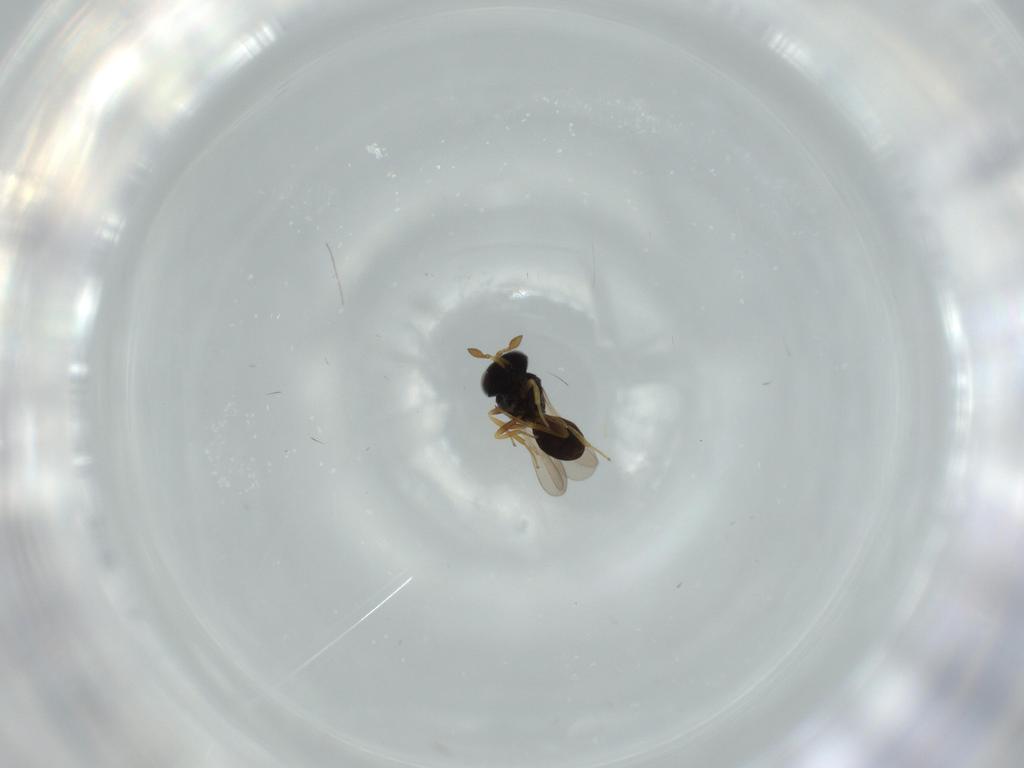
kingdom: Animalia
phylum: Arthropoda
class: Insecta
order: Hymenoptera
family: Scelionidae
